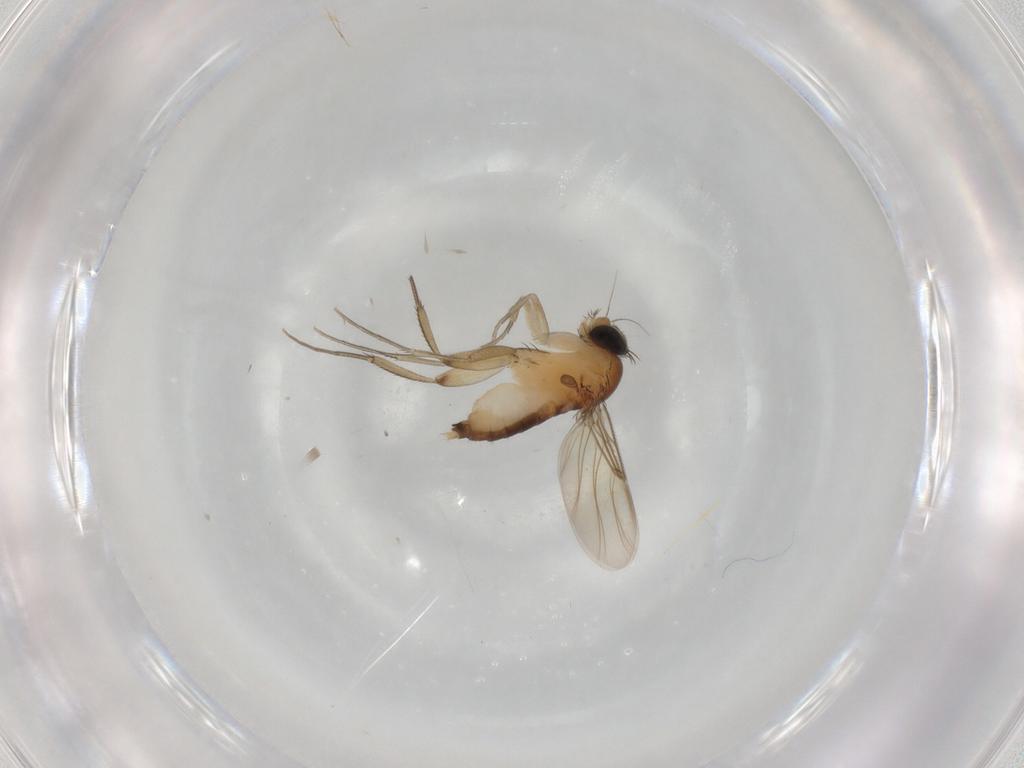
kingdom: Animalia
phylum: Arthropoda
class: Insecta
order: Diptera
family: Phoridae
